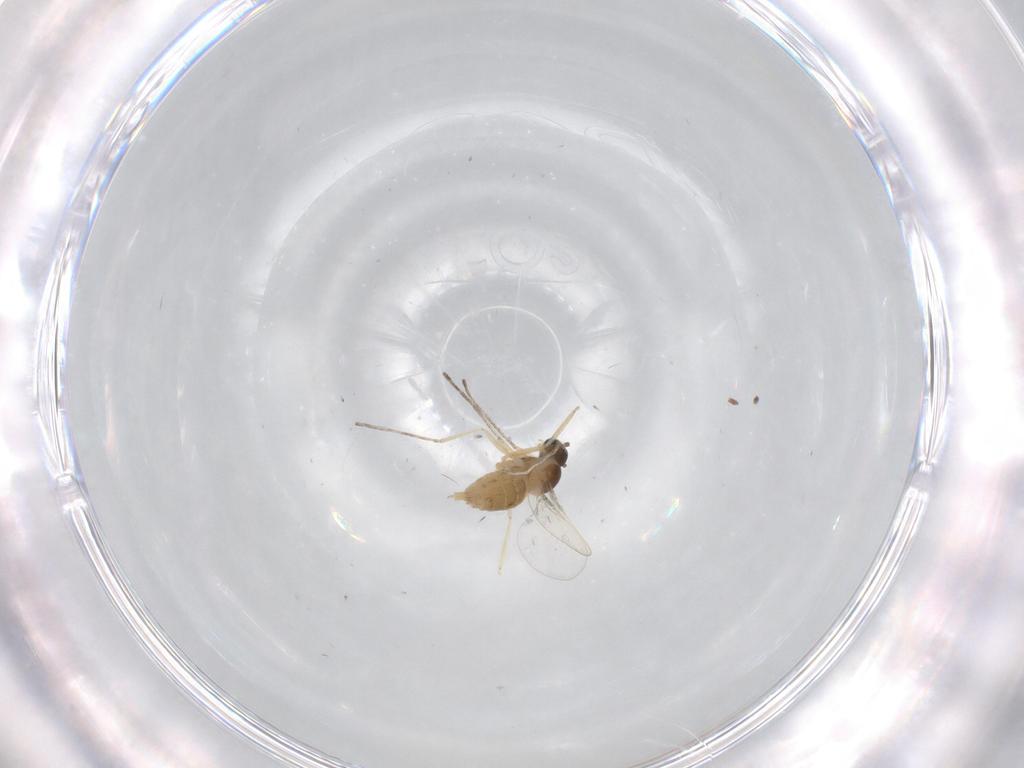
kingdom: Animalia
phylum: Arthropoda
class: Insecta
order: Diptera
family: Cecidomyiidae
